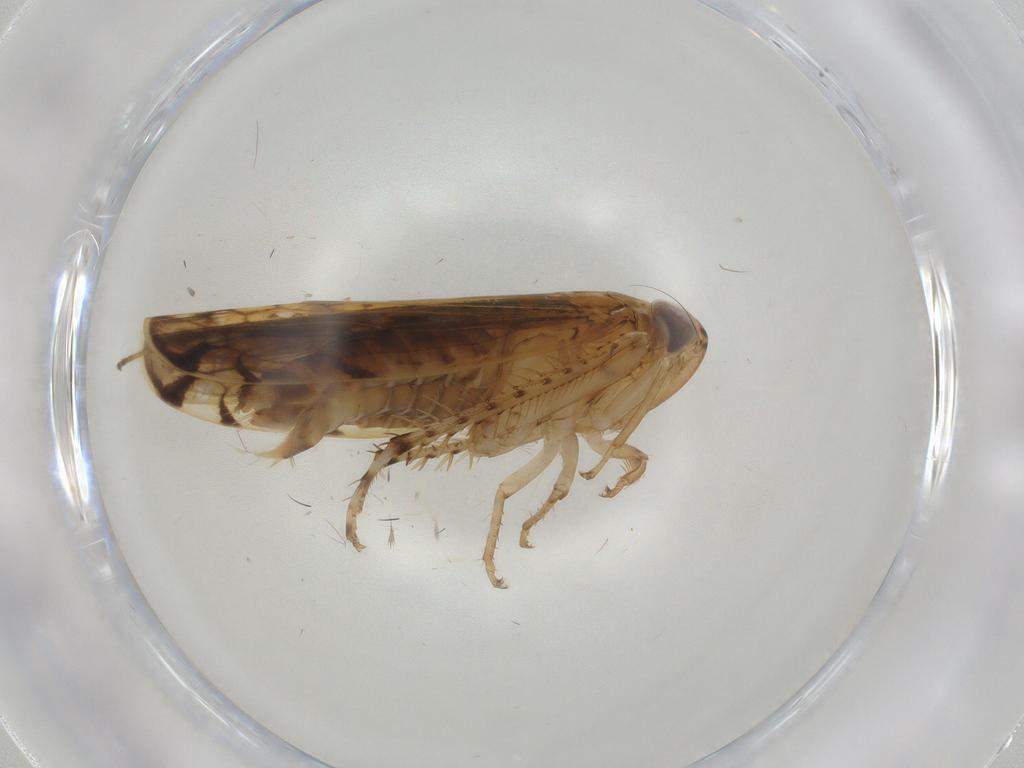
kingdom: Animalia
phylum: Arthropoda
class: Insecta
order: Hemiptera
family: Cicadellidae
